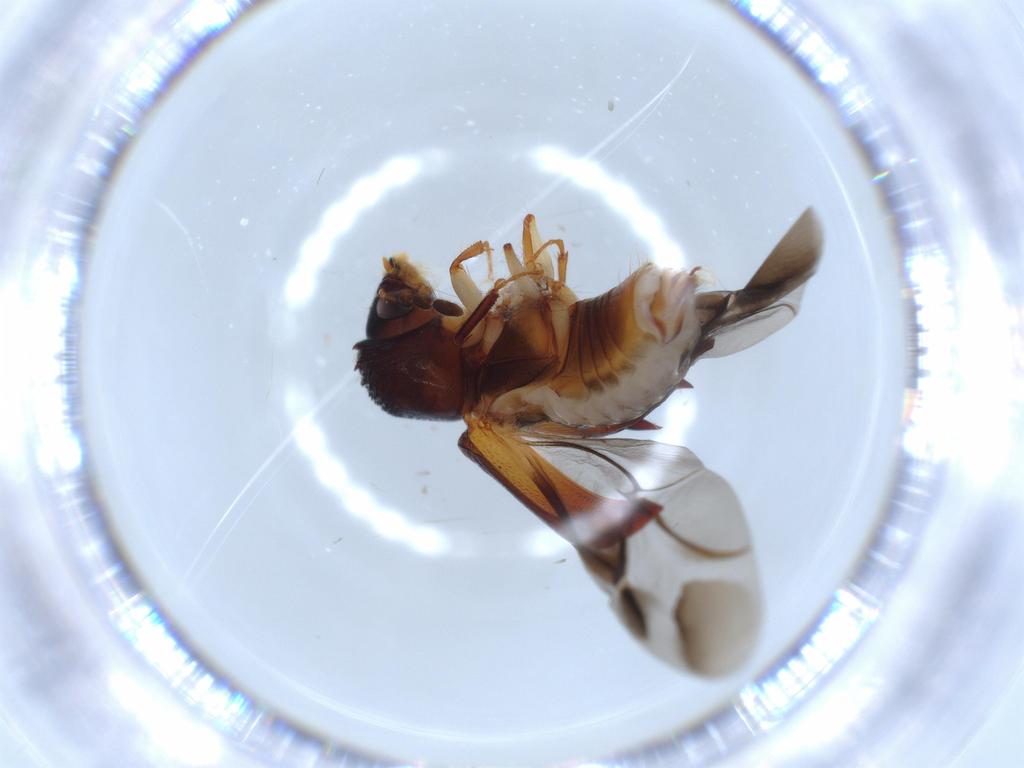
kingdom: Animalia
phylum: Arthropoda
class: Insecta
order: Coleoptera
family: Bostrichidae
